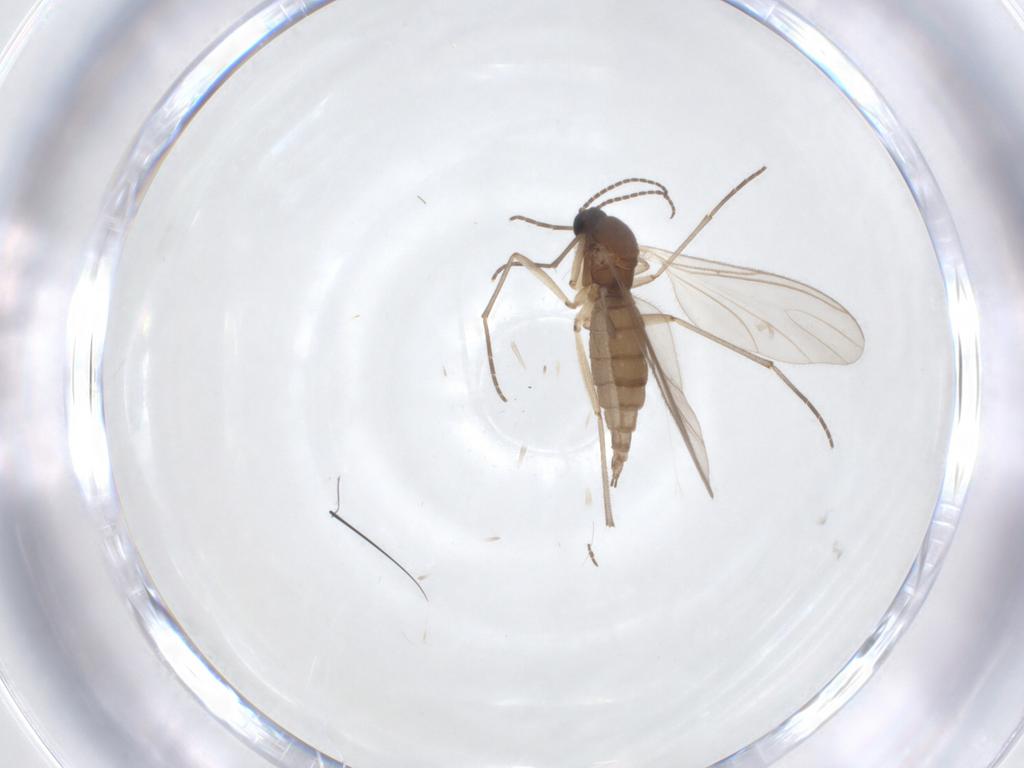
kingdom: Animalia
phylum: Arthropoda
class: Insecta
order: Diptera
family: Sciaridae
